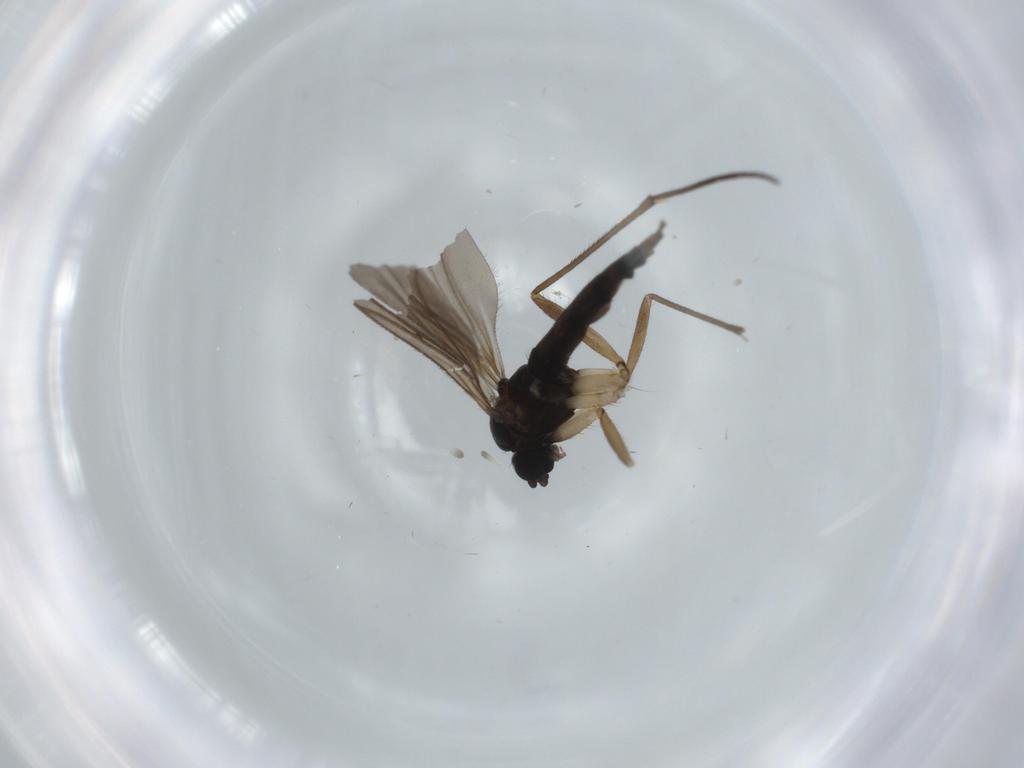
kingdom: Animalia
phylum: Arthropoda
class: Insecta
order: Diptera
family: Sciaridae
